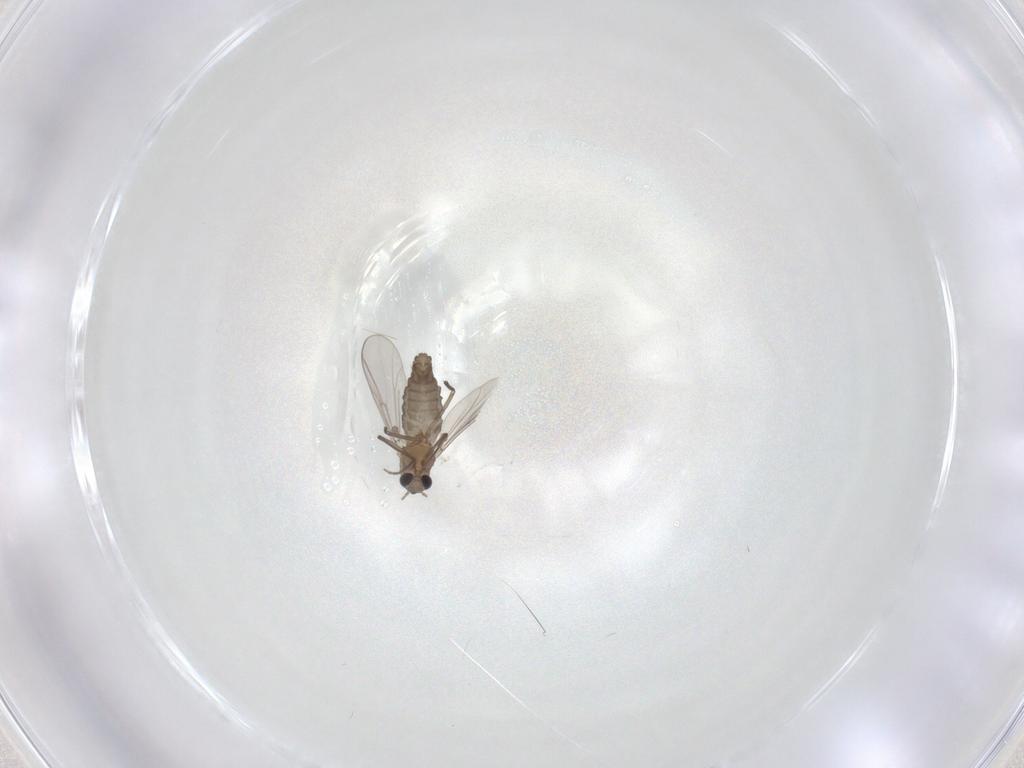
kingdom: Animalia
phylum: Arthropoda
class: Insecta
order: Diptera
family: Chironomidae
